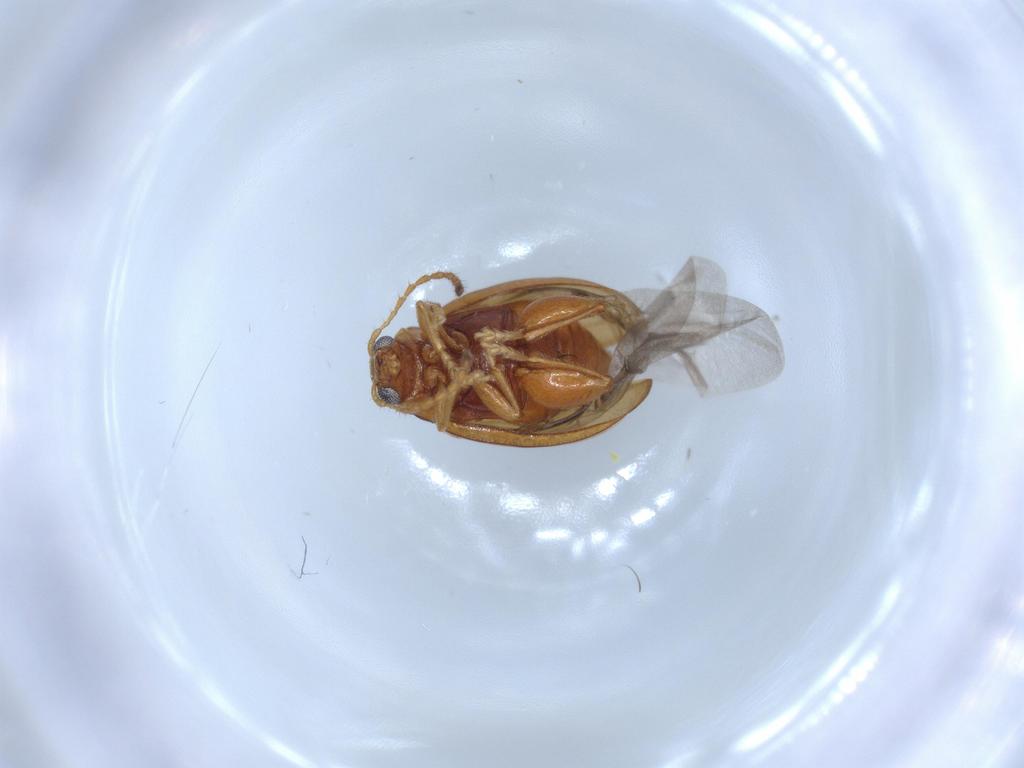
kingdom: Animalia
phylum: Arthropoda
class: Insecta
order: Coleoptera
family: Chrysomelidae
